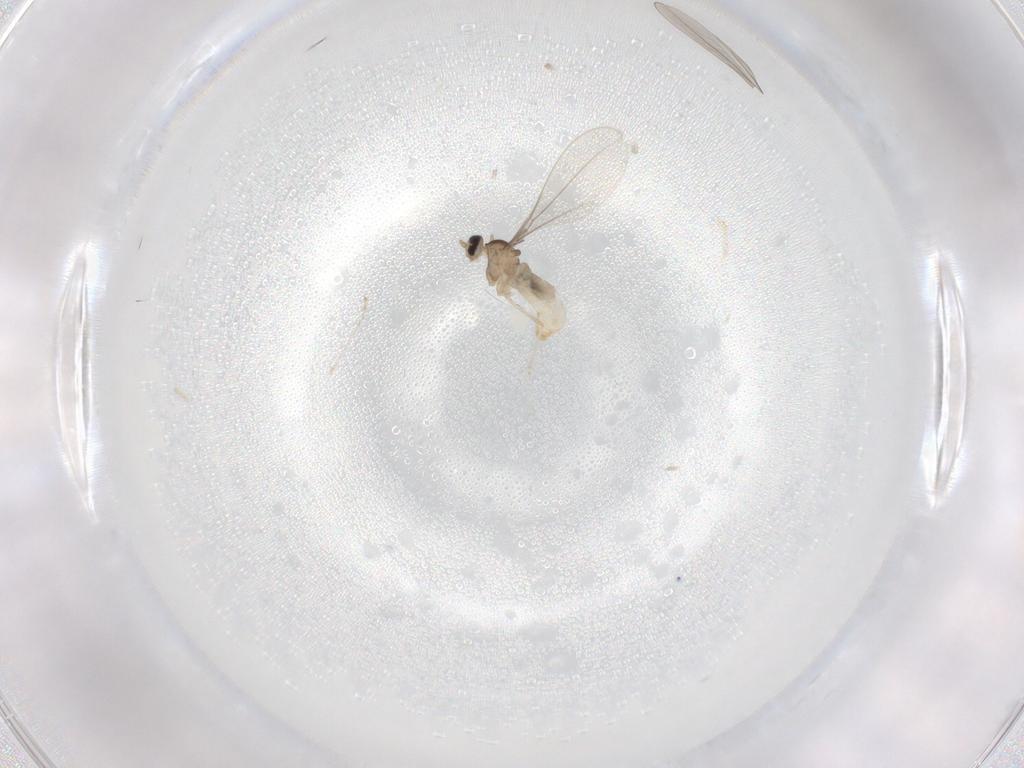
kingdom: Animalia
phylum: Arthropoda
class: Insecta
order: Diptera
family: Cecidomyiidae
